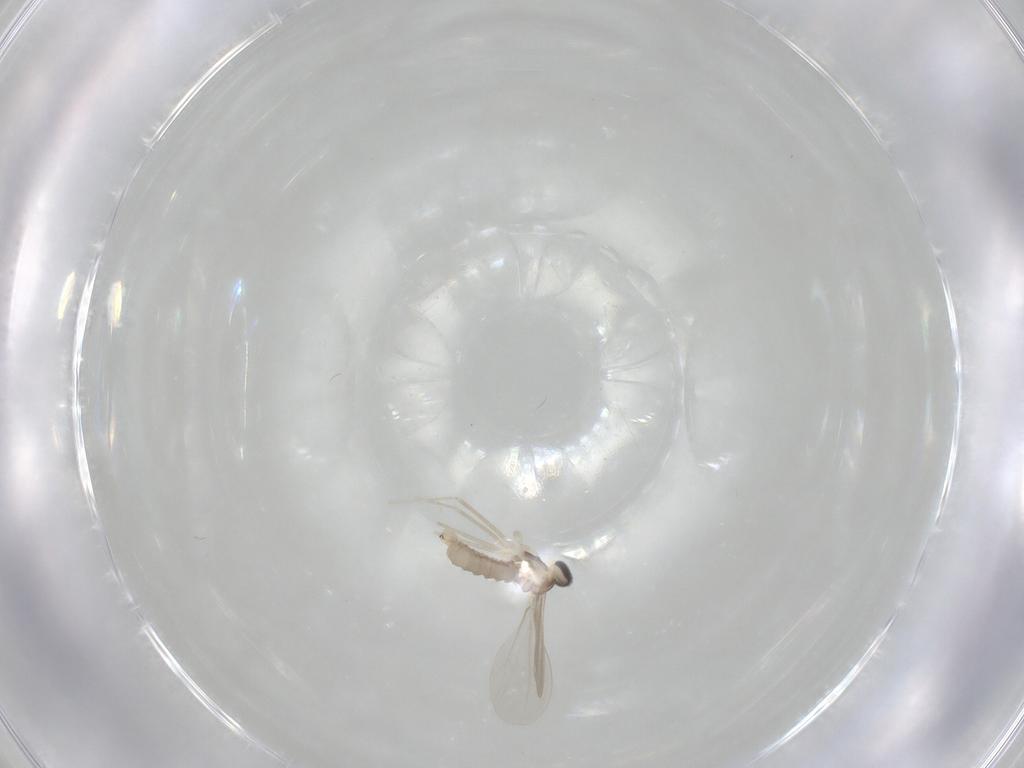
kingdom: Animalia
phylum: Arthropoda
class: Insecta
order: Diptera
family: Cecidomyiidae
